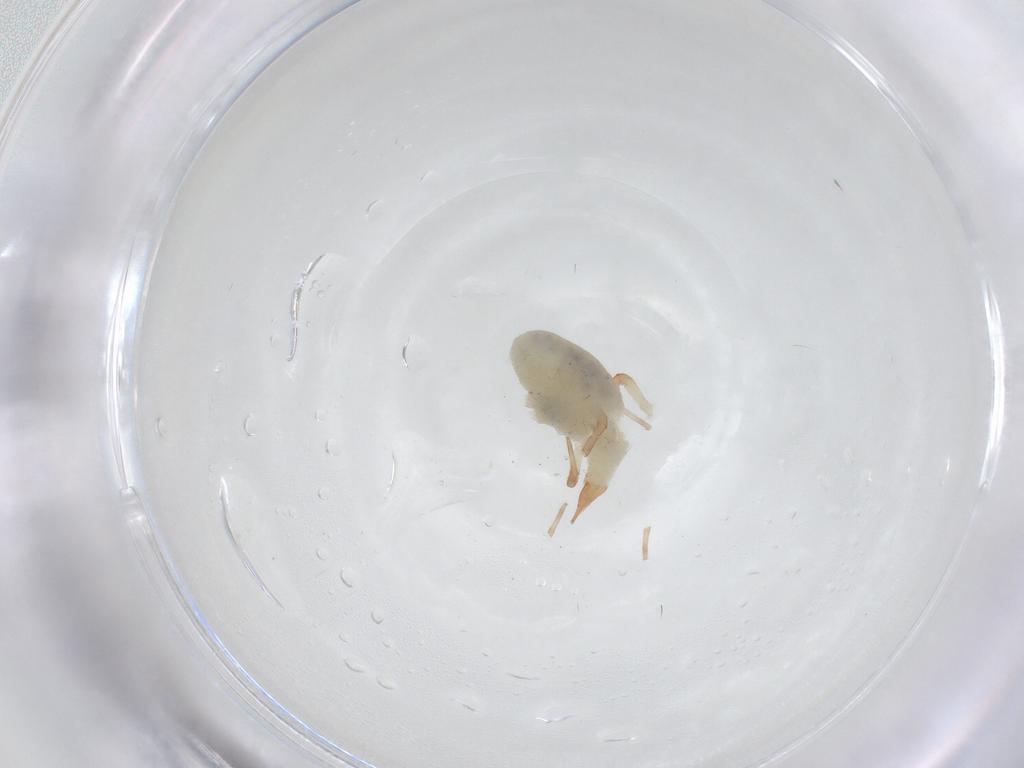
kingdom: Animalia
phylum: Arthropoda
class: Arachnida
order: Trombidiformes
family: Bdellidae
